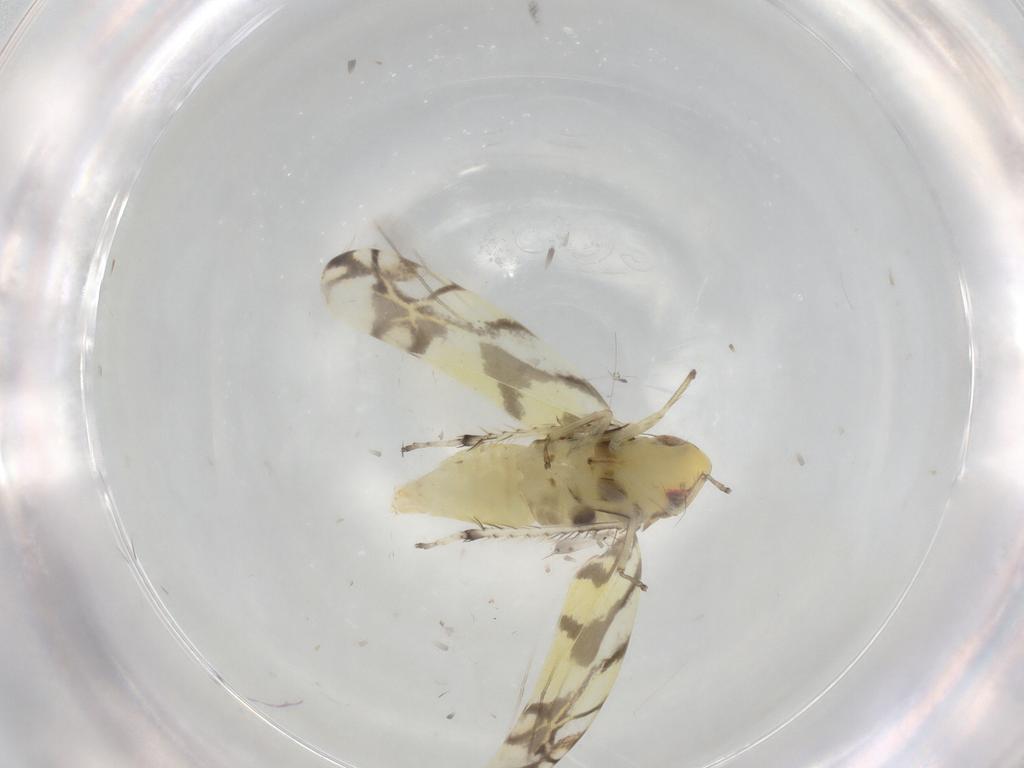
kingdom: Animalia
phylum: Arthropoda
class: Insecta
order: Hemiptera
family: Cicadellidae
